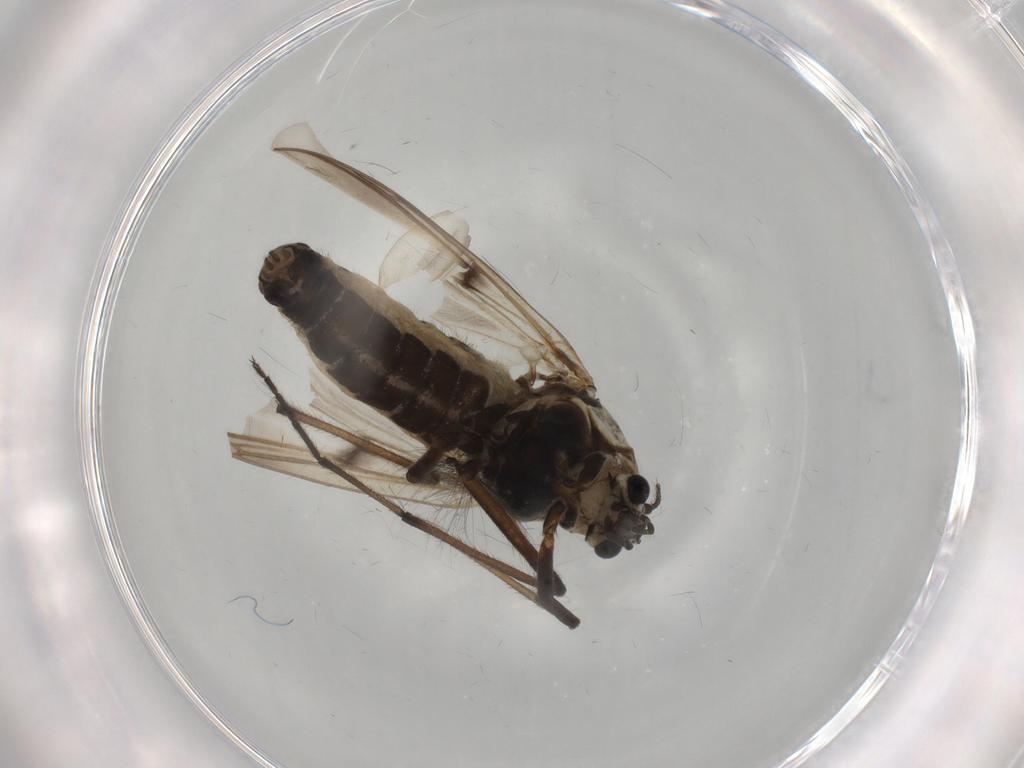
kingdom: Animalia
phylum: Arthropoda
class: Insecta
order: Diptera
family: Chironomidae
